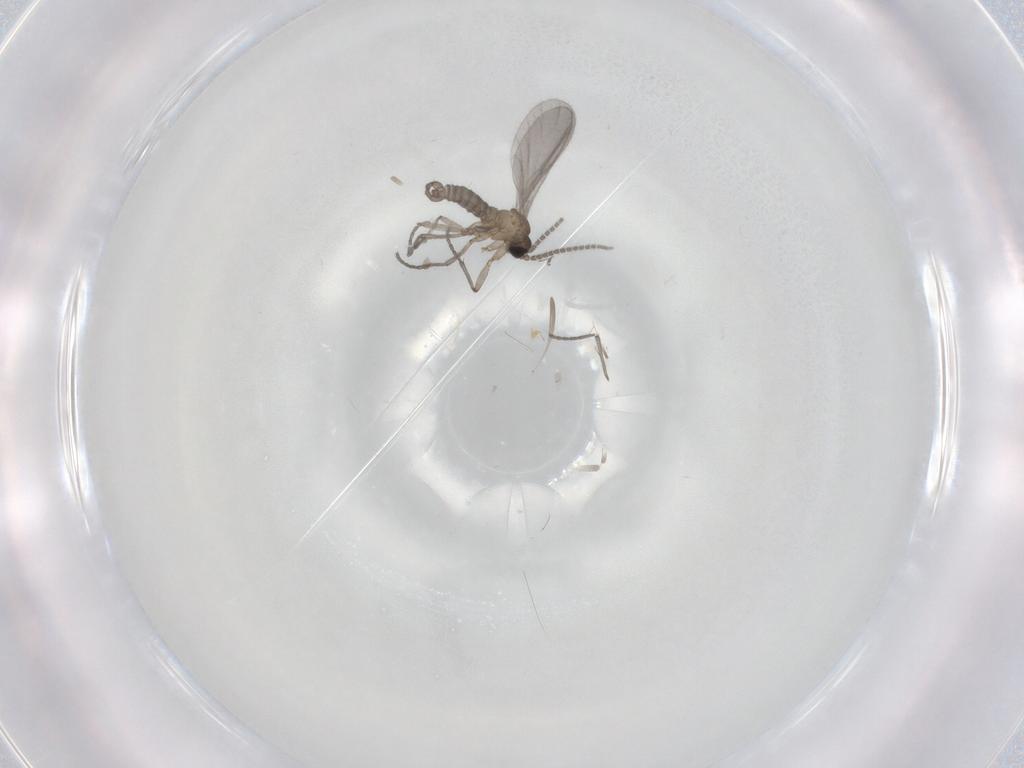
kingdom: Animalia
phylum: Arthropoda
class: Insecta
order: Diptera
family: Sciaridae
